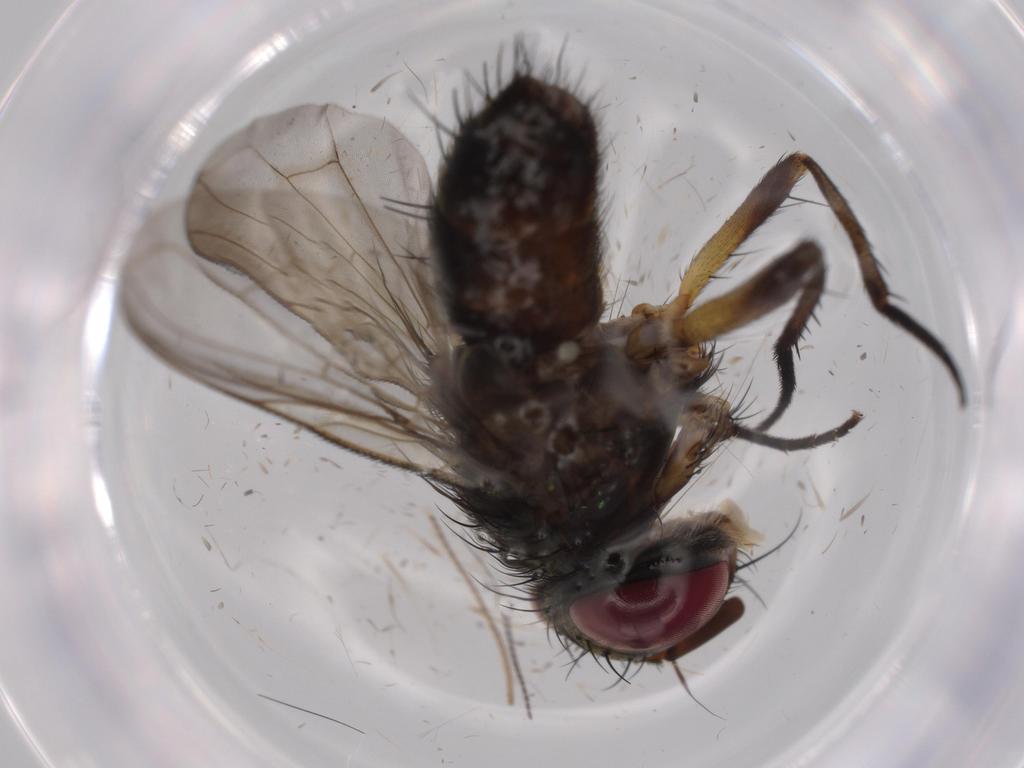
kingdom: Animalia
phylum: Arthropoda
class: Insecta
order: Diptera
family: Cecidomyiidae
